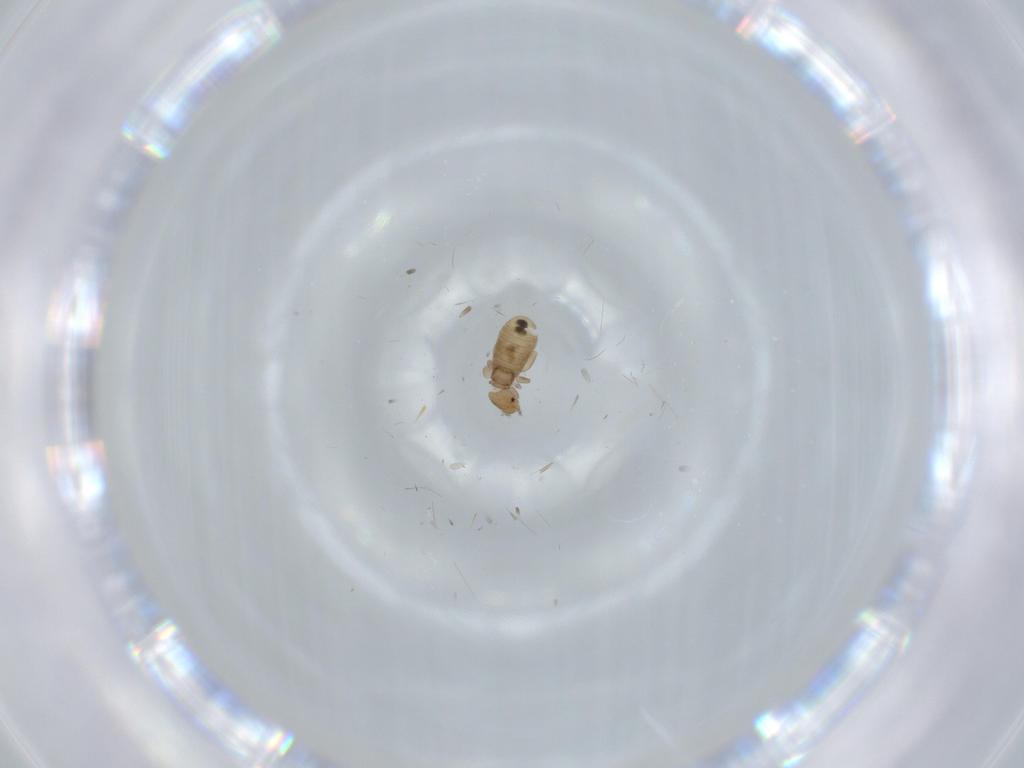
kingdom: Animalia
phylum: Arthropoda
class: Insecta
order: Psocodea
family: Liposcelididae
